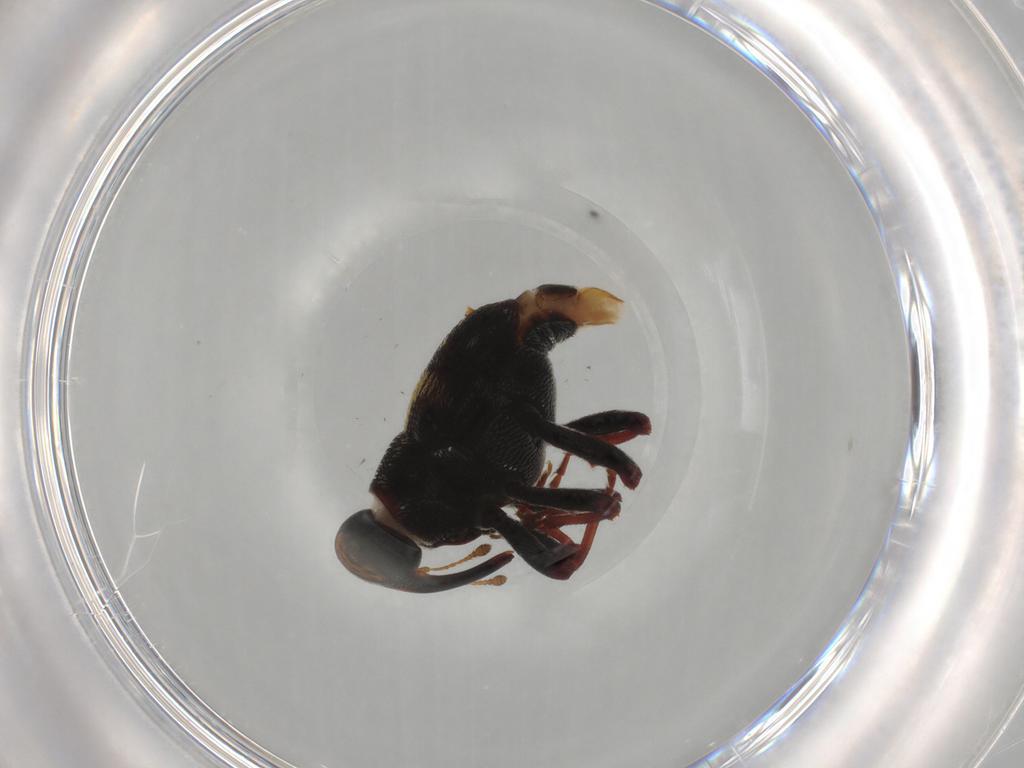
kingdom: Animalia
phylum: Arthropoda
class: Insecta
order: Coleoptera
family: Curculionidae
